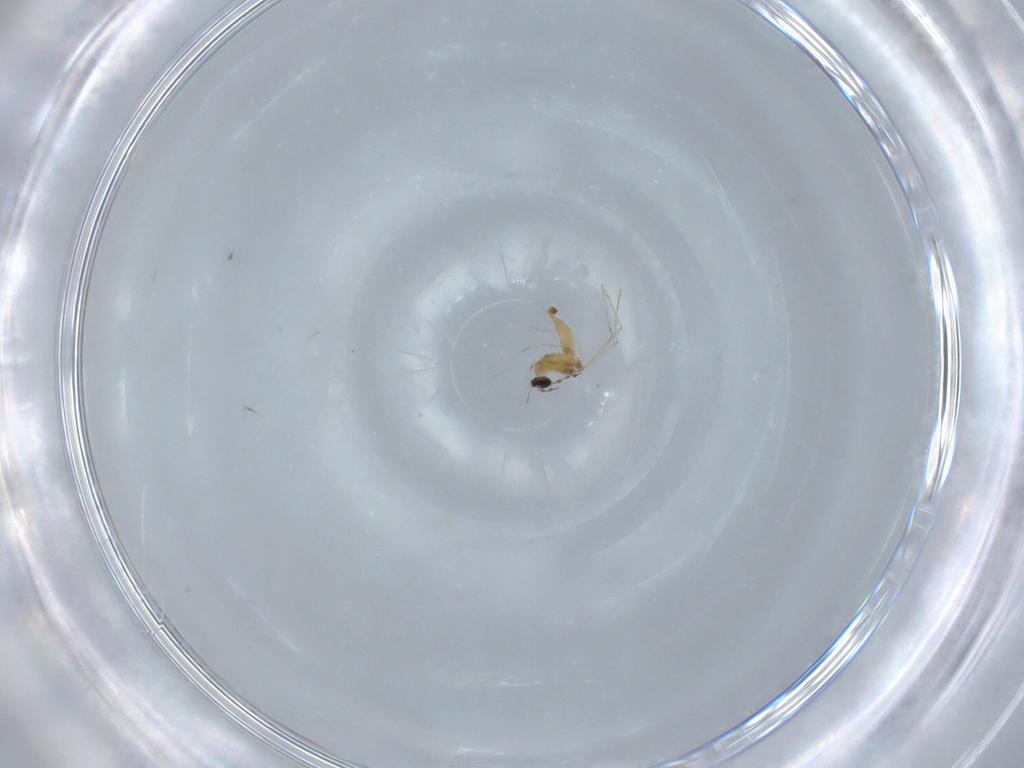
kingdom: Animalia
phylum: Arthropoda
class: Insecta
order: Diptera
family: Cecidomyiidae
